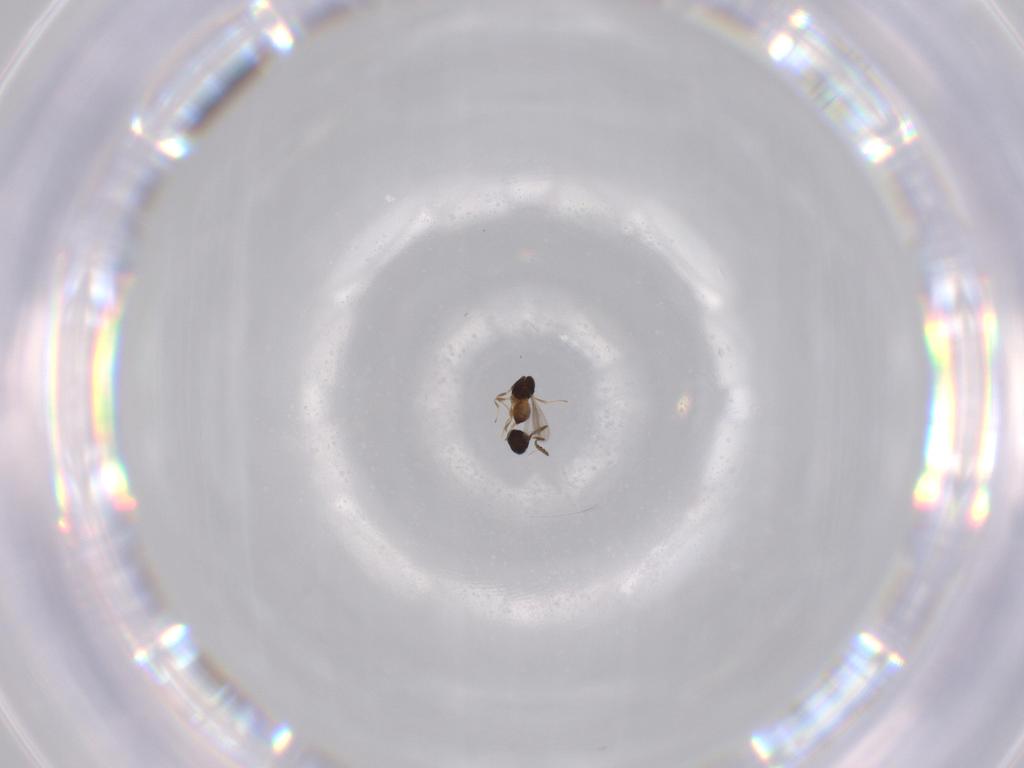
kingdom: Animalia
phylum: Arthropoda
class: Insecta
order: Hymenoptera
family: Scelionidae
